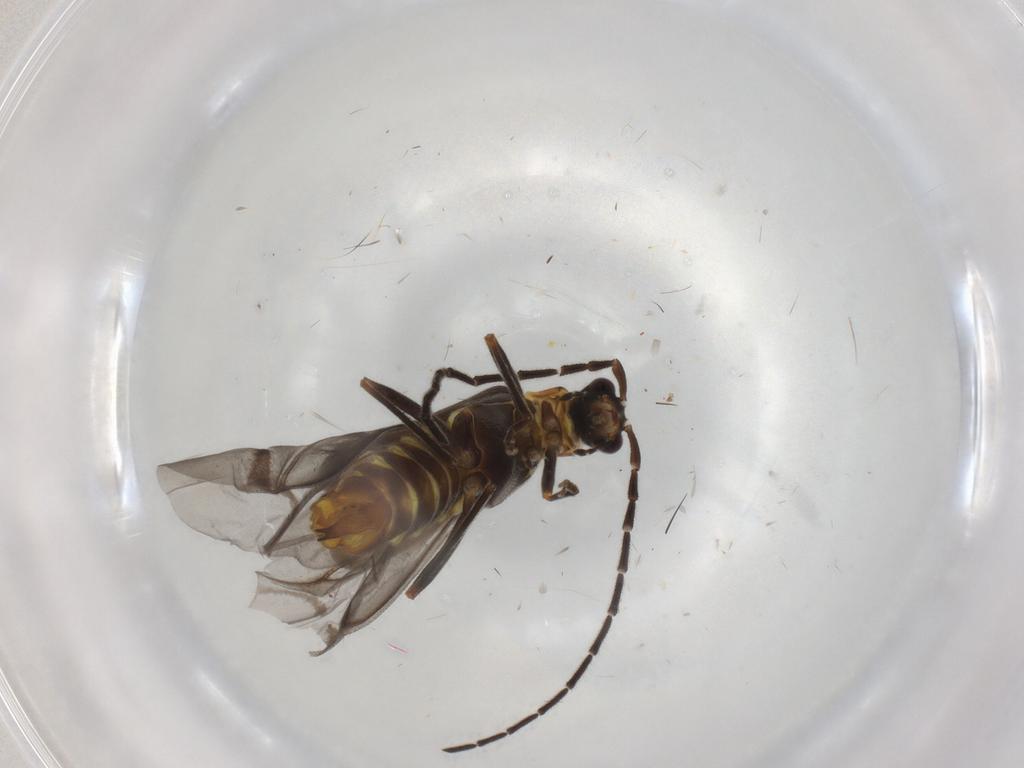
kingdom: Animalia
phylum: Arthropoda
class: Insecta
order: Coleoptera
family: Cantharidae
